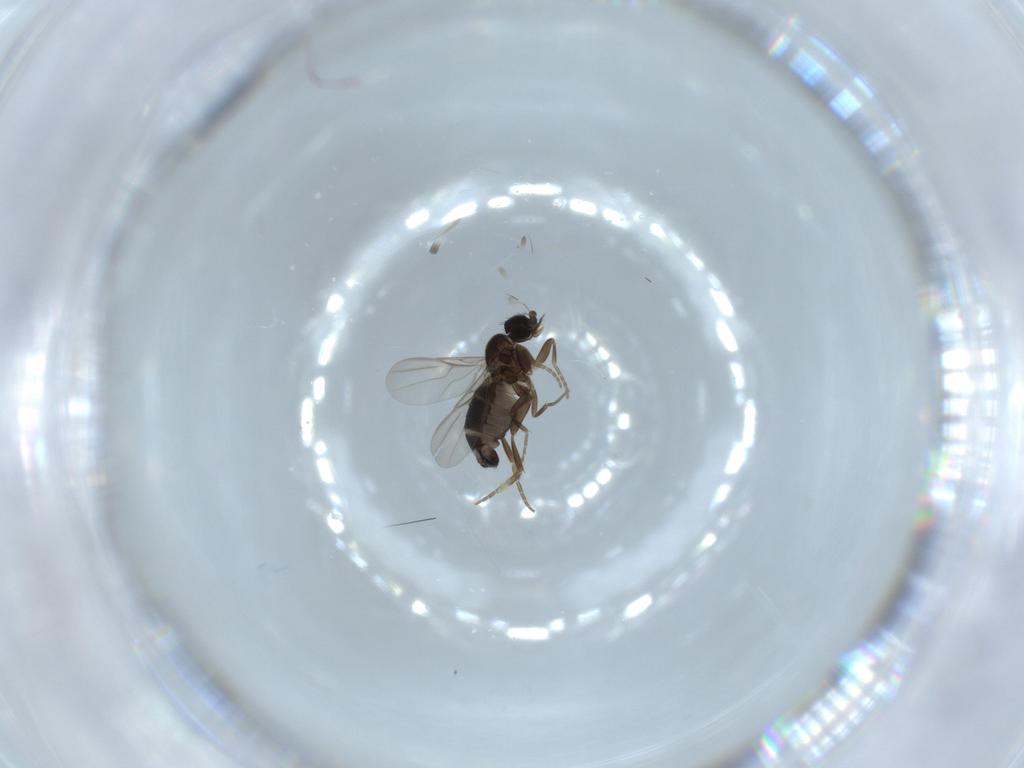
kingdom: Animalia
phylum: Arthropoda
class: Insecta
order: Diptera
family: Phoridae
